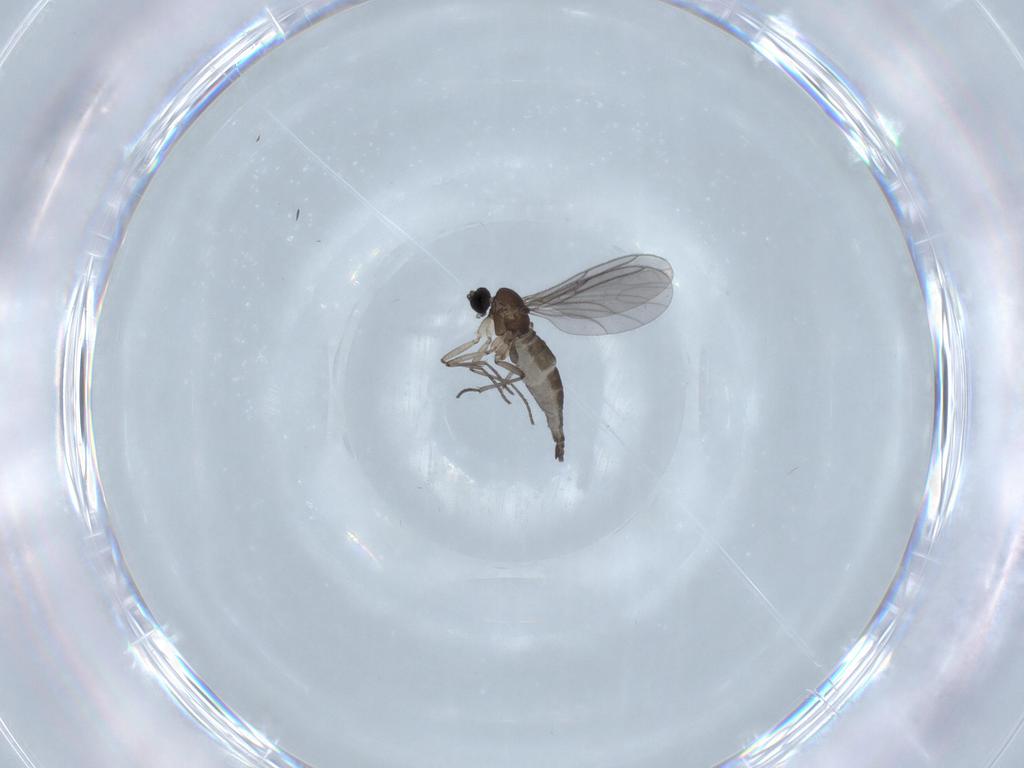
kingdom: Animalia
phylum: Arthropoda
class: Insecta
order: Diptera
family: Sciaridae
